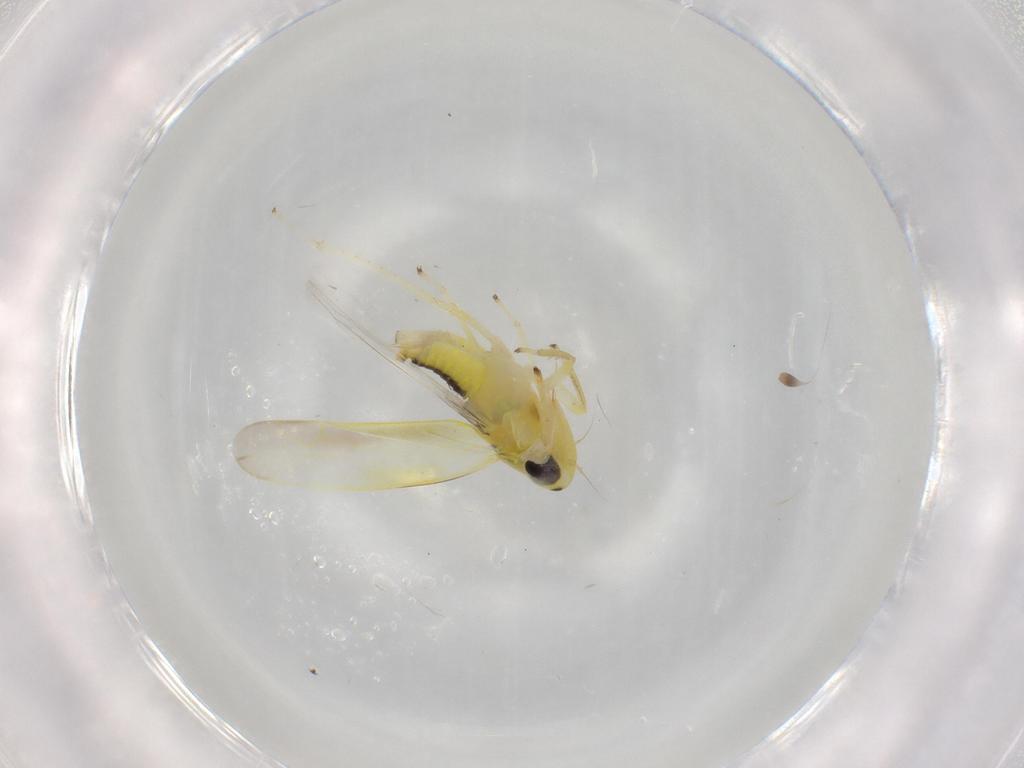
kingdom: Animalia
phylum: Arthropoda
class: Insecta
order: Hemiptera
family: Cicadellidae
